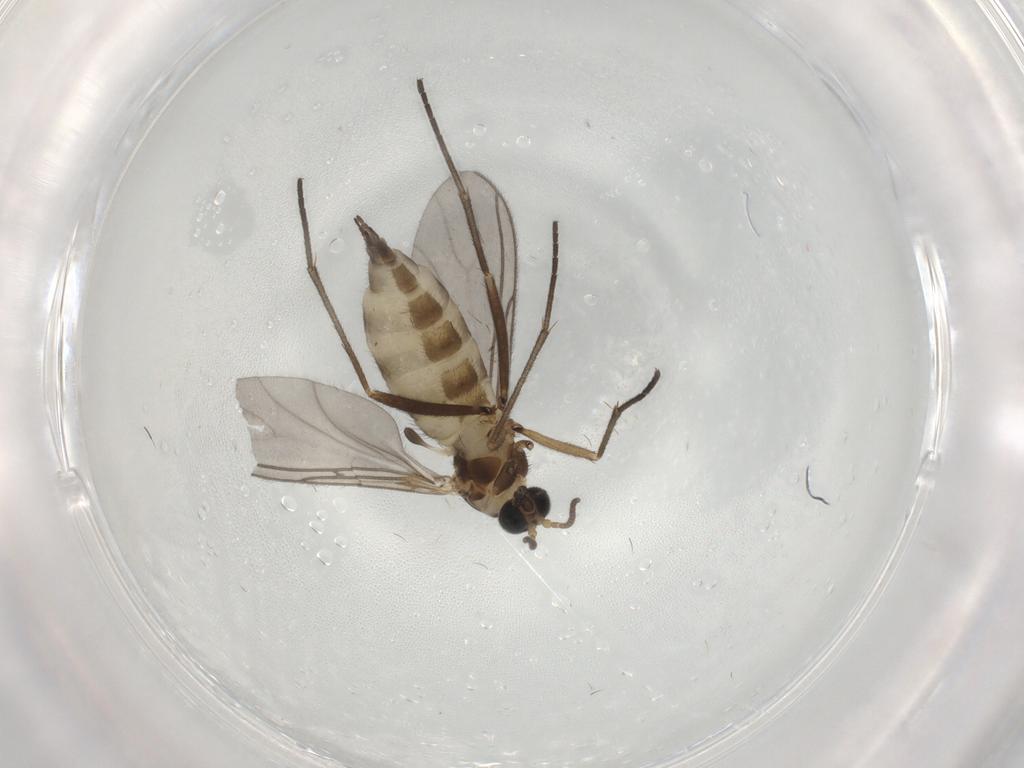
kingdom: Animalia
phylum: Arthropoda
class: Insecta
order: Diptera
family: Sciaridae
